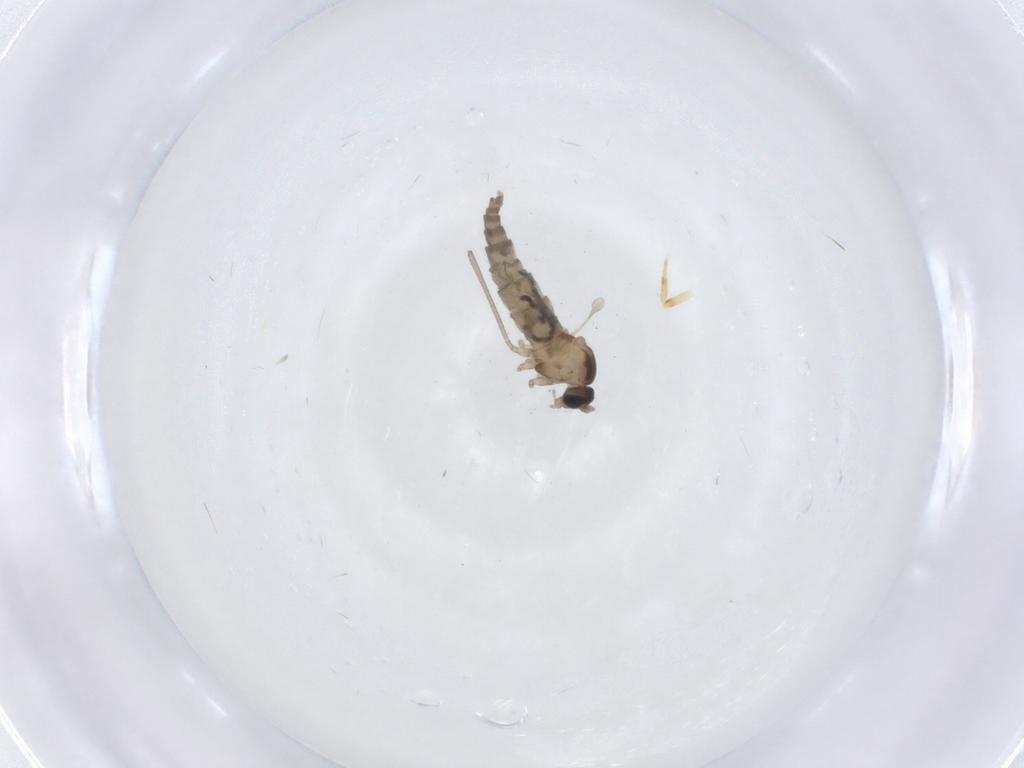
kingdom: Animalia
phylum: Arthropoda
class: Insecta
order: Diptera
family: Cecidomyiidae
